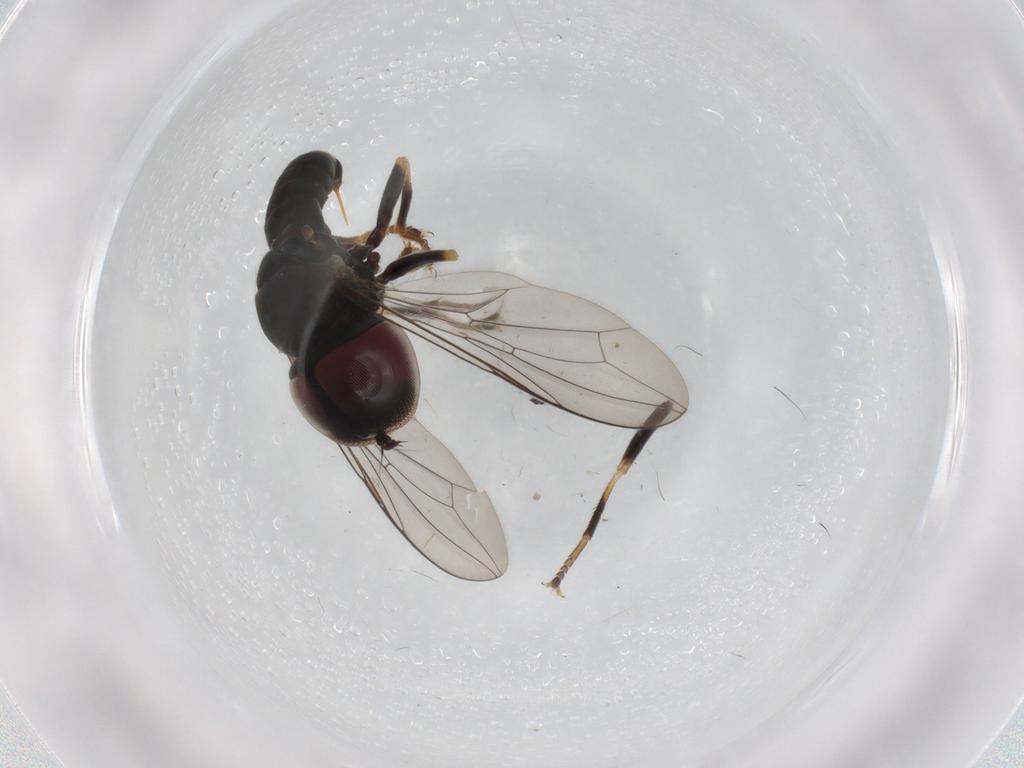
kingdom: Animalia
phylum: Arthropoda
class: Insecta
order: Diptera
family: Pipunculidae
